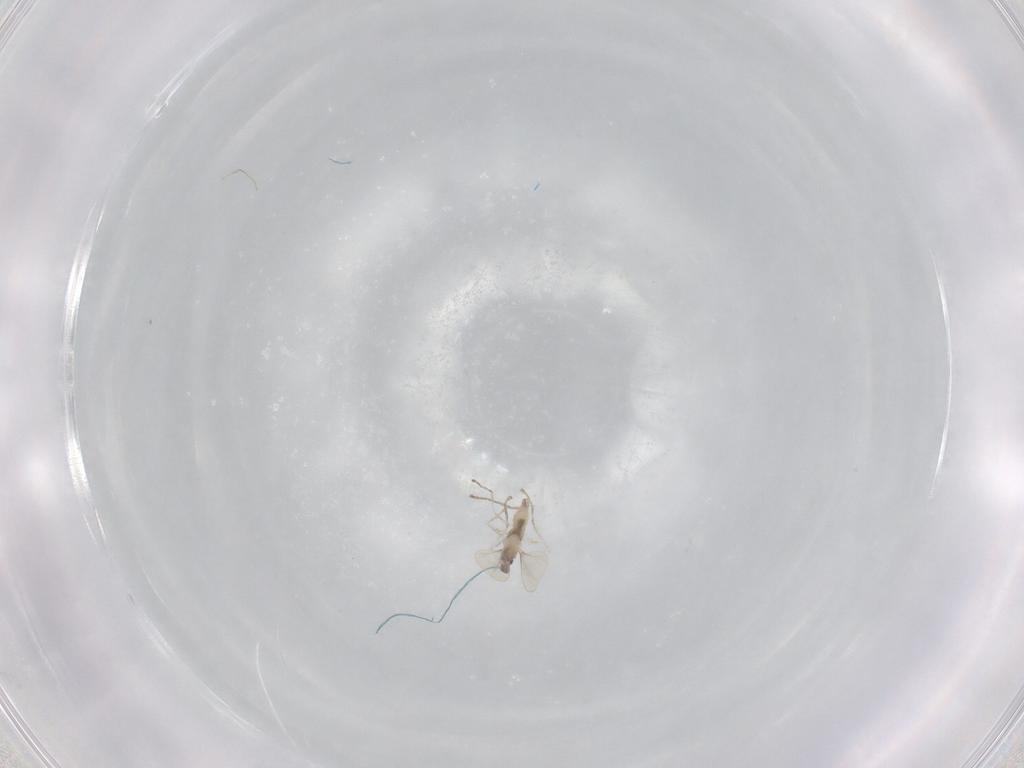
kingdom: Animalia
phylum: Arthropoda
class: Insecta
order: Diptera
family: Cecidomyiidae
